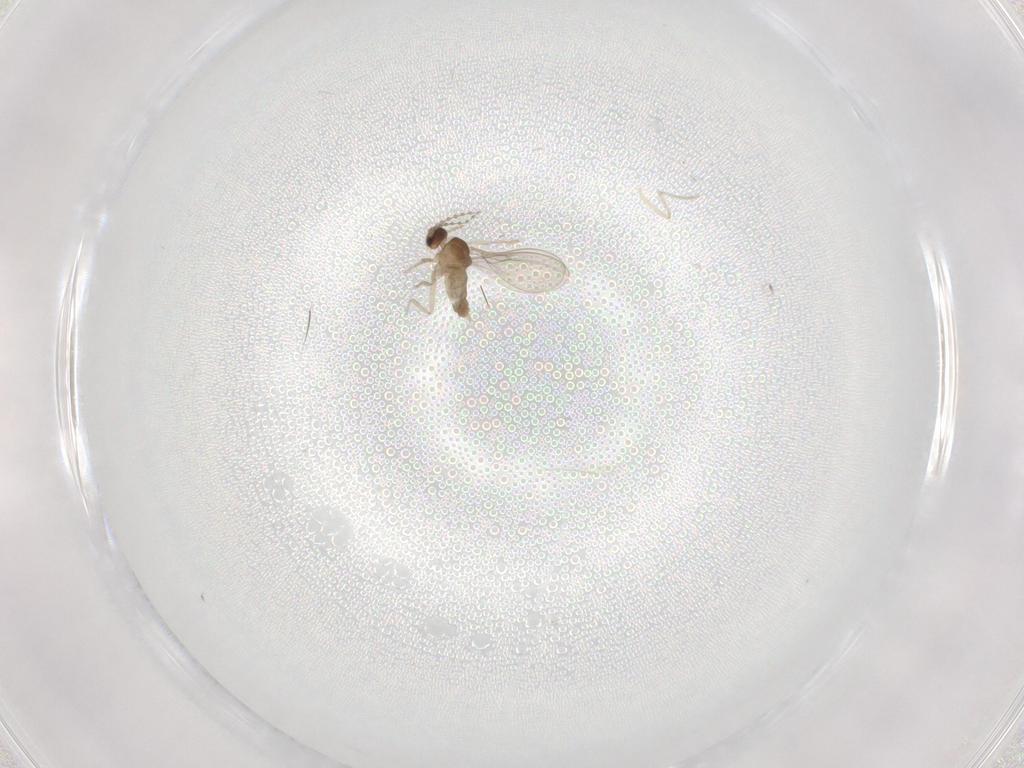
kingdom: Animalia
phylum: Arthropoda
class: Insecta
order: Diptera
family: Cecidomyiidae
